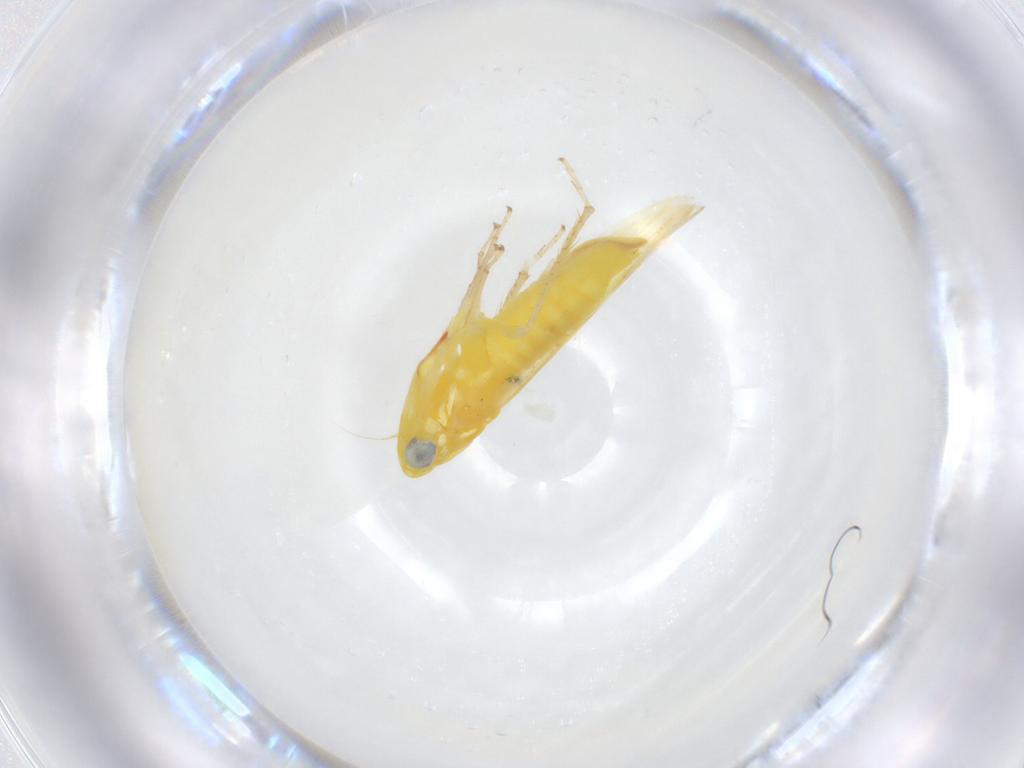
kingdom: Animalia
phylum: Arthropoda
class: Insecta
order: Hemiptera
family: Cicadellidae
